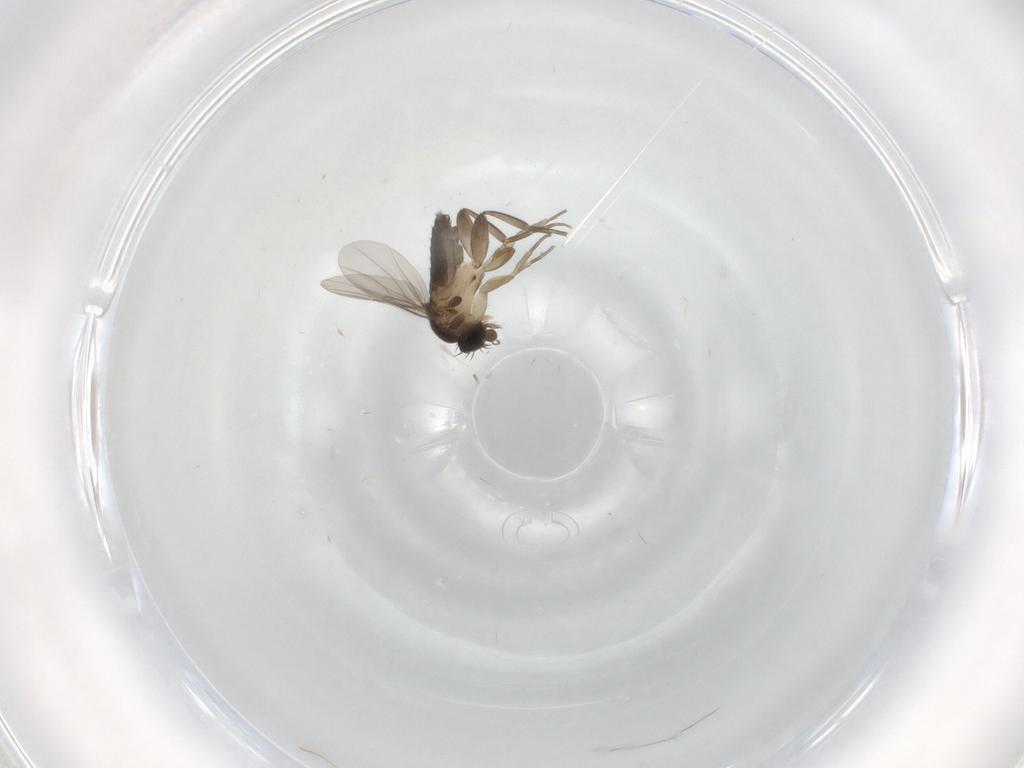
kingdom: Animalia
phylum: Arthropoda
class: Insecta
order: Diptera
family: Phoridae
